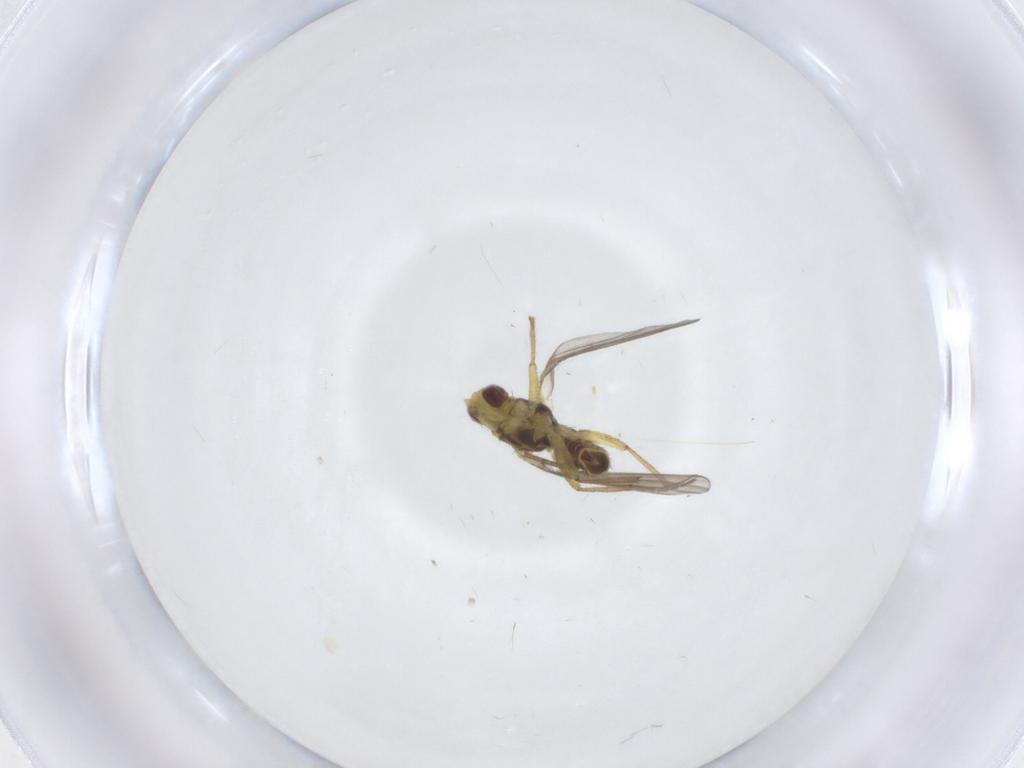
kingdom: Animalia
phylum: Arthropoda
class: Insecta
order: Diptera
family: Agromyzidae
